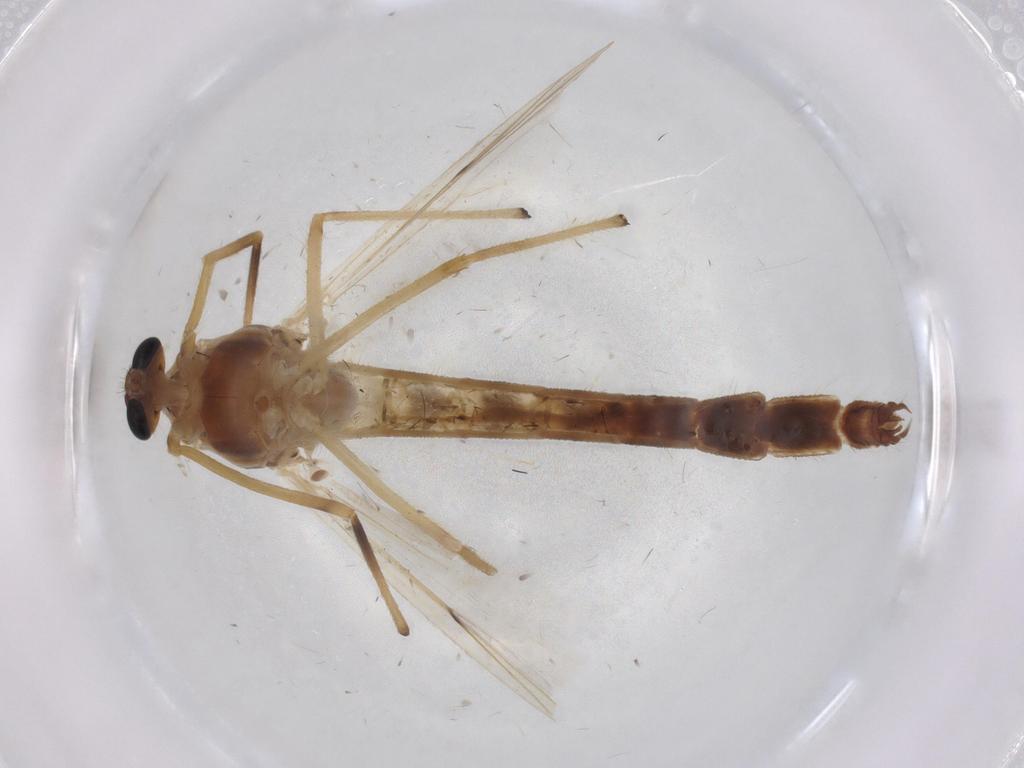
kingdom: Animalia
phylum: Arthropoda
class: Insecta
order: Diptera
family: Chironomidae
